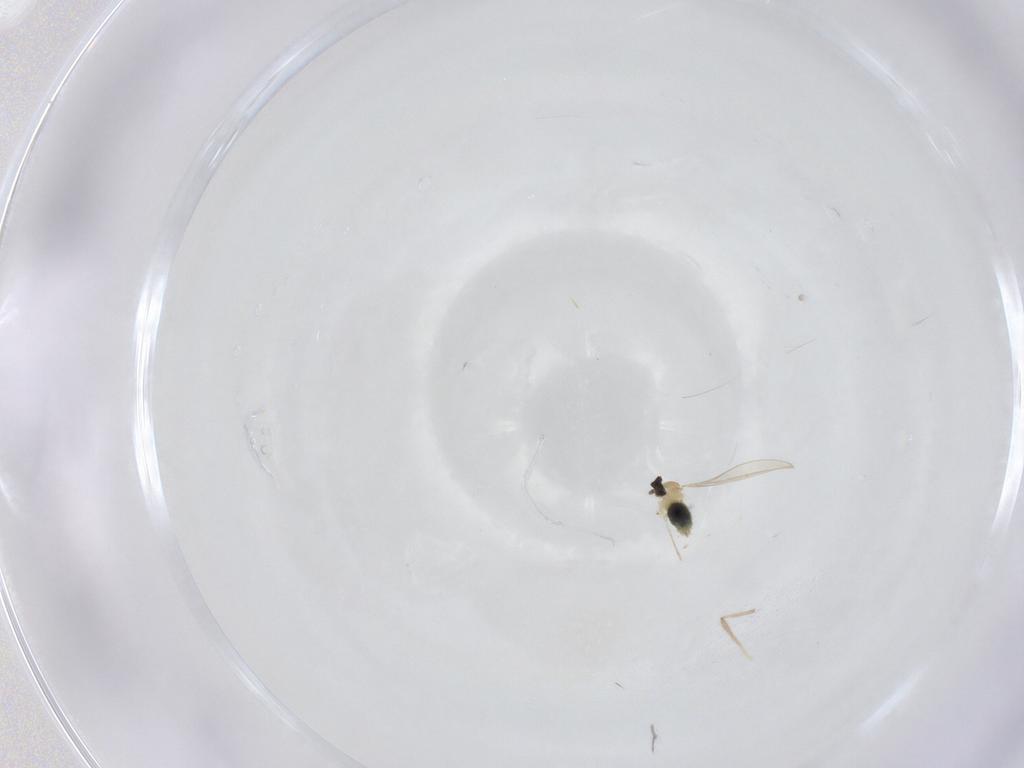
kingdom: Animalia
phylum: Arthropoda
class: Insecta
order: Diptera
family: Cecidomyiidae
